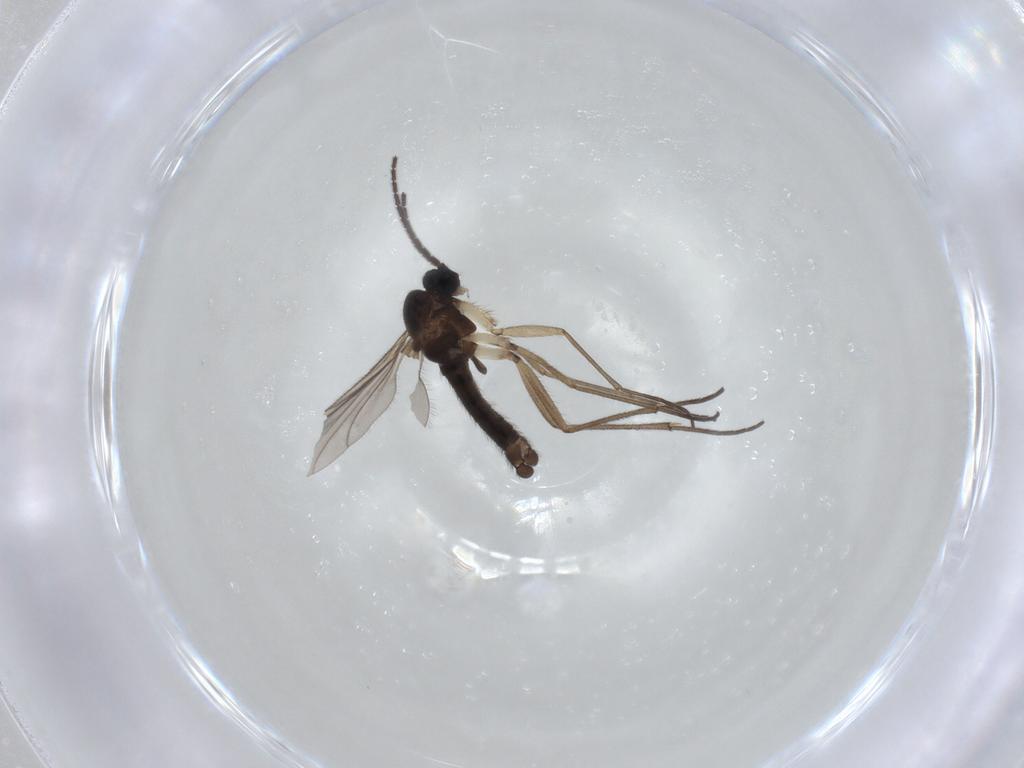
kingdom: Animalia
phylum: Arthropoda
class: Insecta
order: Diptera
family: Sciaridae
